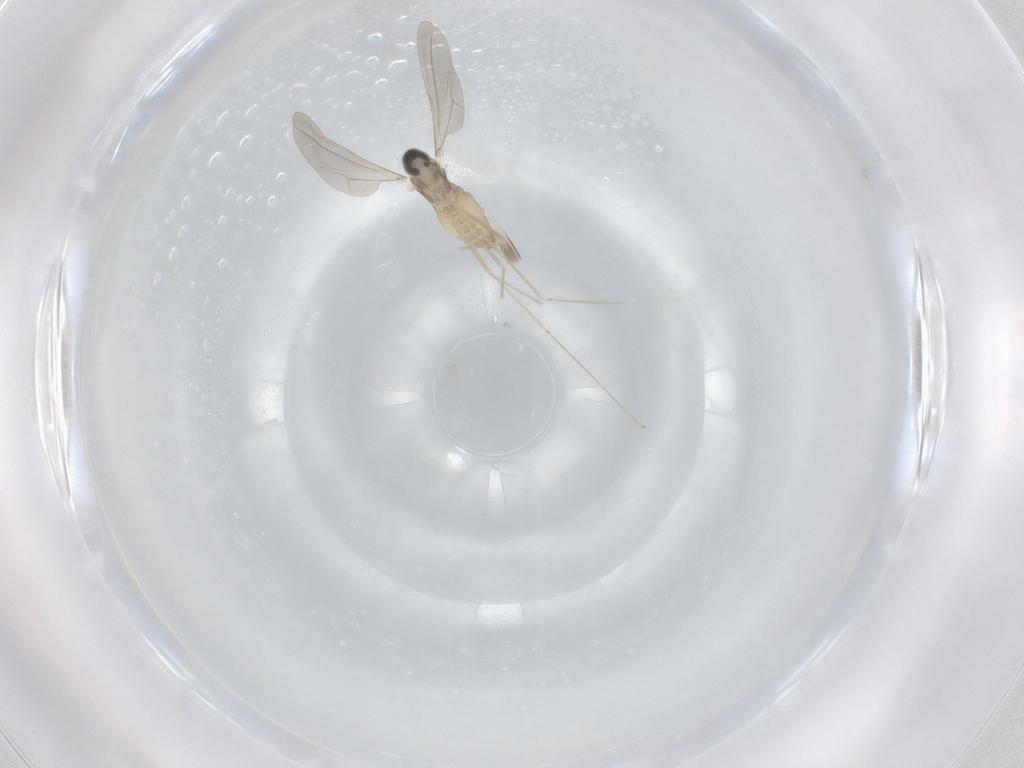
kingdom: Animalia
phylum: Arthropoda
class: Insecta
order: Diptera
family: Cecidomyiidae
